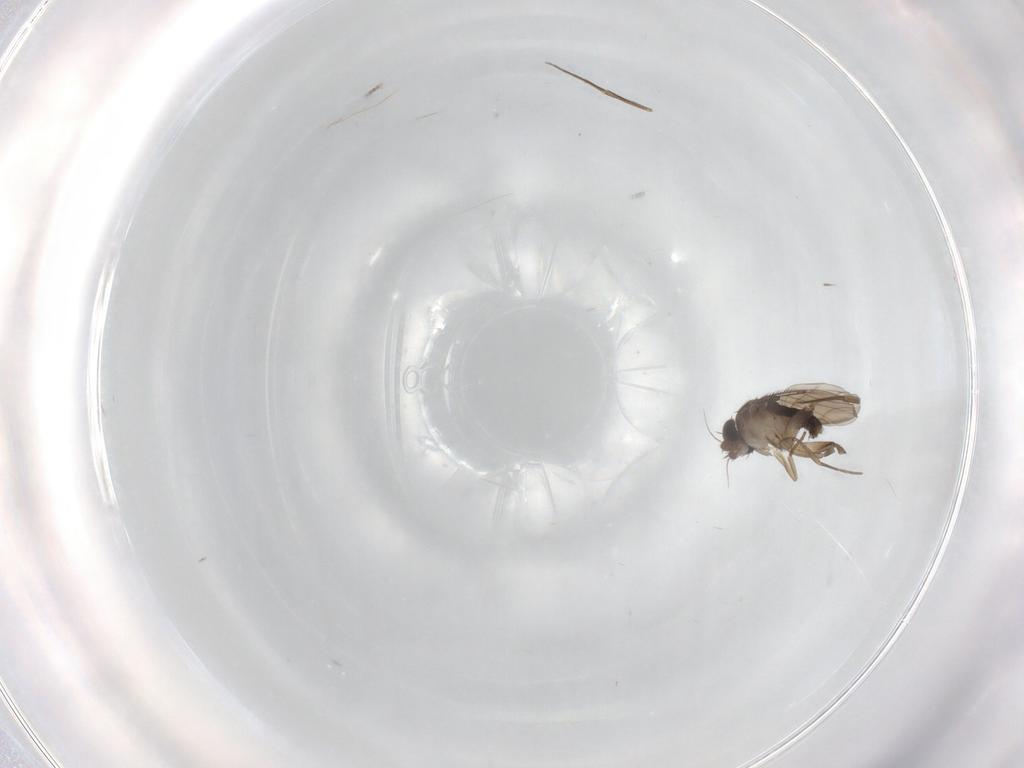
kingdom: Animalia
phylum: Arthropoda
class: Insecta
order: Diptera
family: Phoridae
